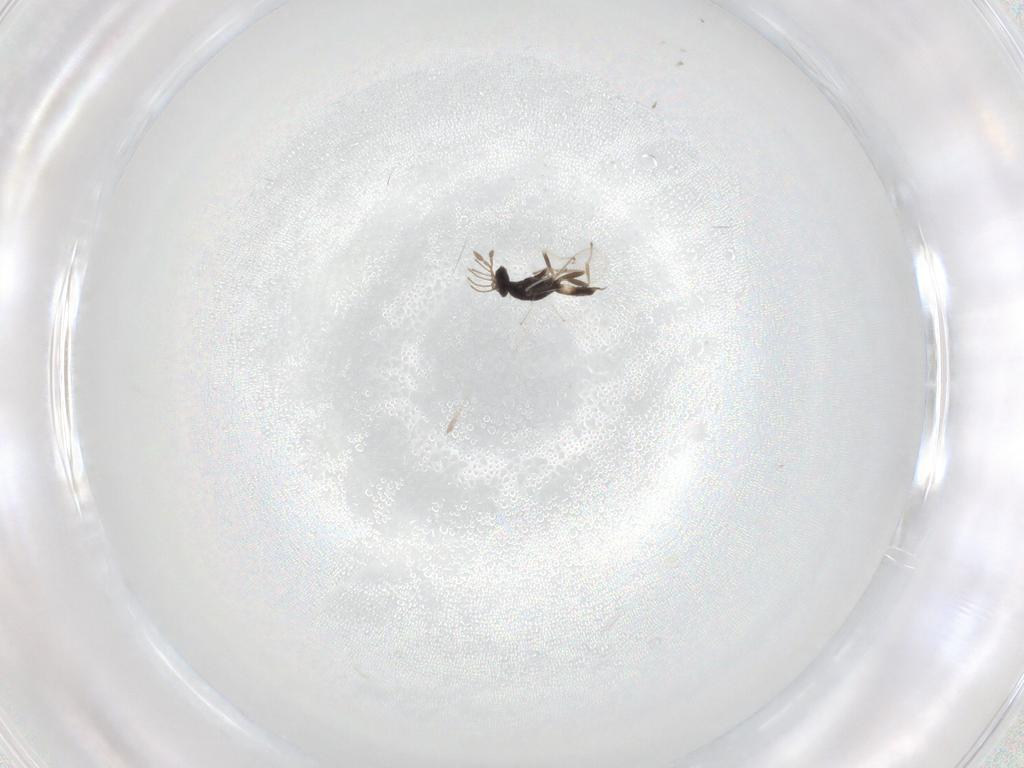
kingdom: Animalia
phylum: Arthropoda
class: Insecta
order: Hymenoptera
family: Eulophidae
